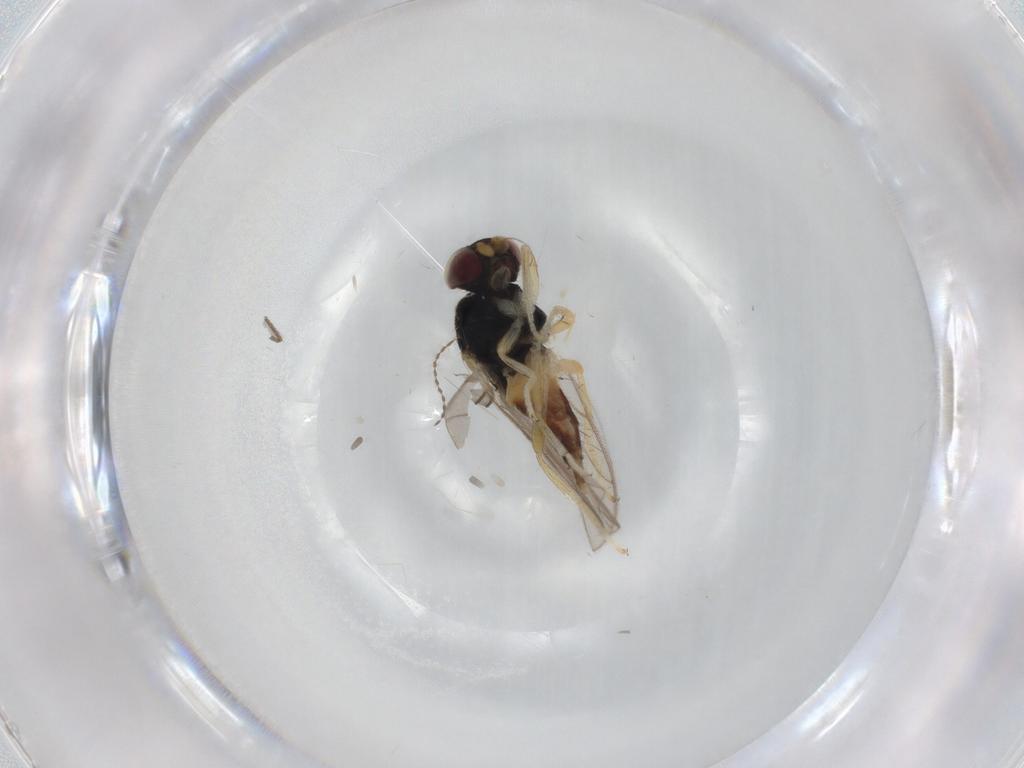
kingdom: Animalia
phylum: Arthropoda
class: Insecta
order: Diptera
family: Chloropidae
